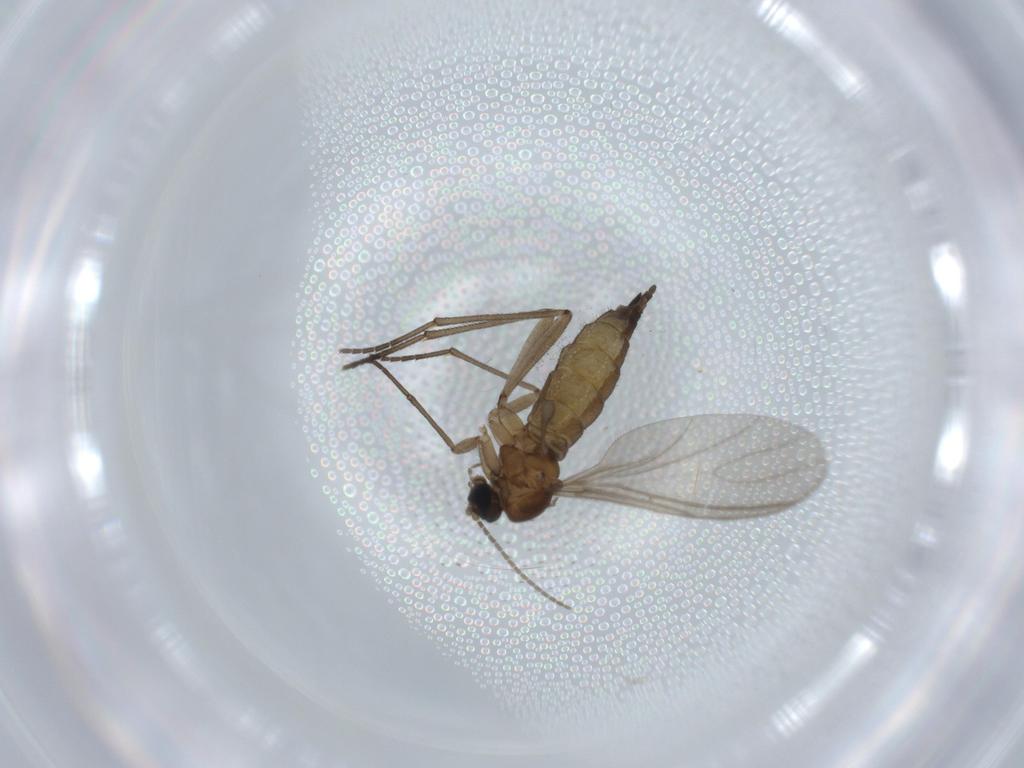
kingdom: Animalia
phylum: Arthropoda
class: Insecta
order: Diptera
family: Sciaridae
